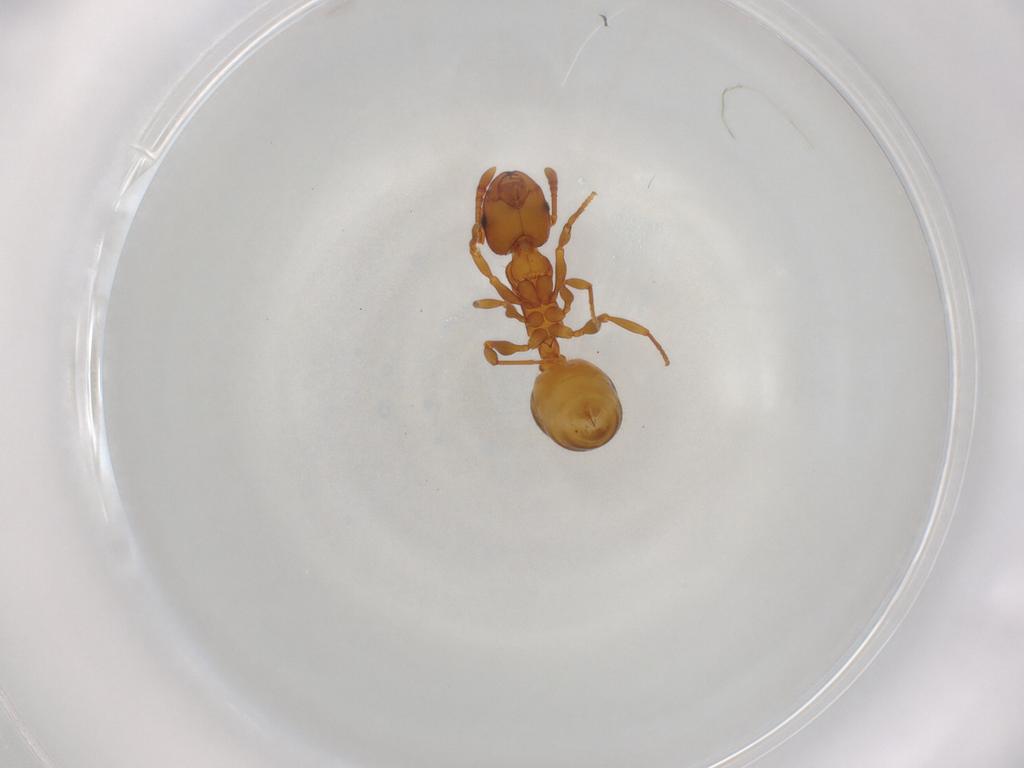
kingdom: Animalia
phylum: Arthropoda
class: Insecta
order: Hymenoptera
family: Formicidae
